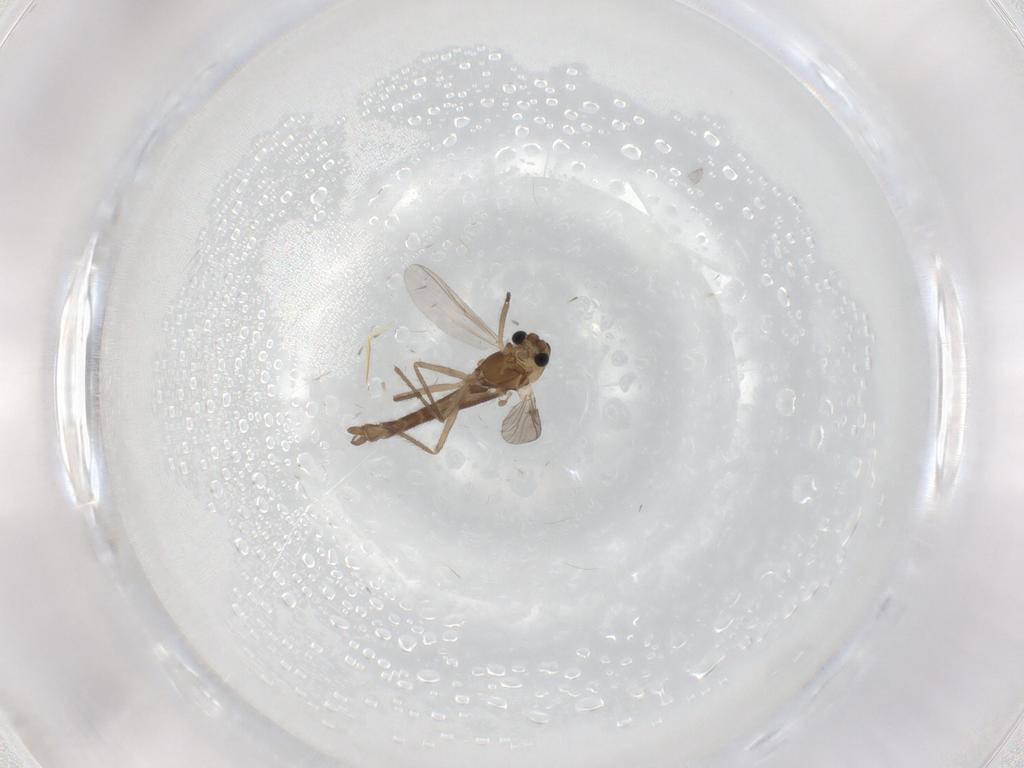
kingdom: Animalia
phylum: Arthropoda
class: Insecta
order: Diptera
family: Chironomidae
